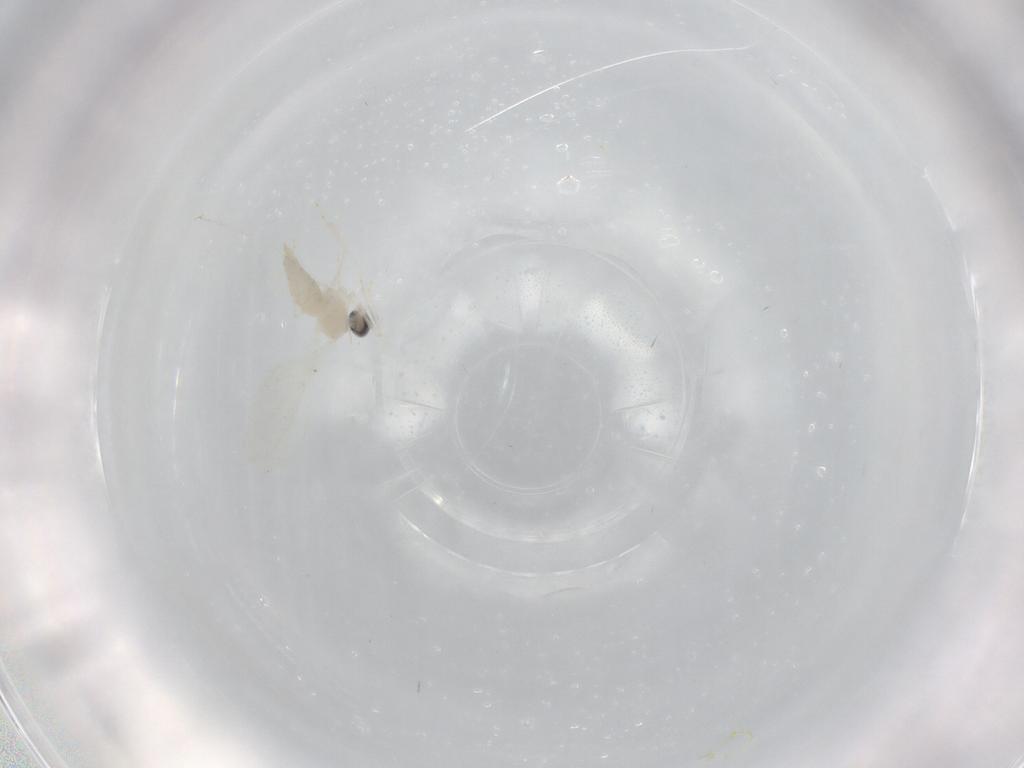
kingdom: Animalia
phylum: Arthropoda
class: Insecta
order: Diptera
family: Cecidomyiidae
